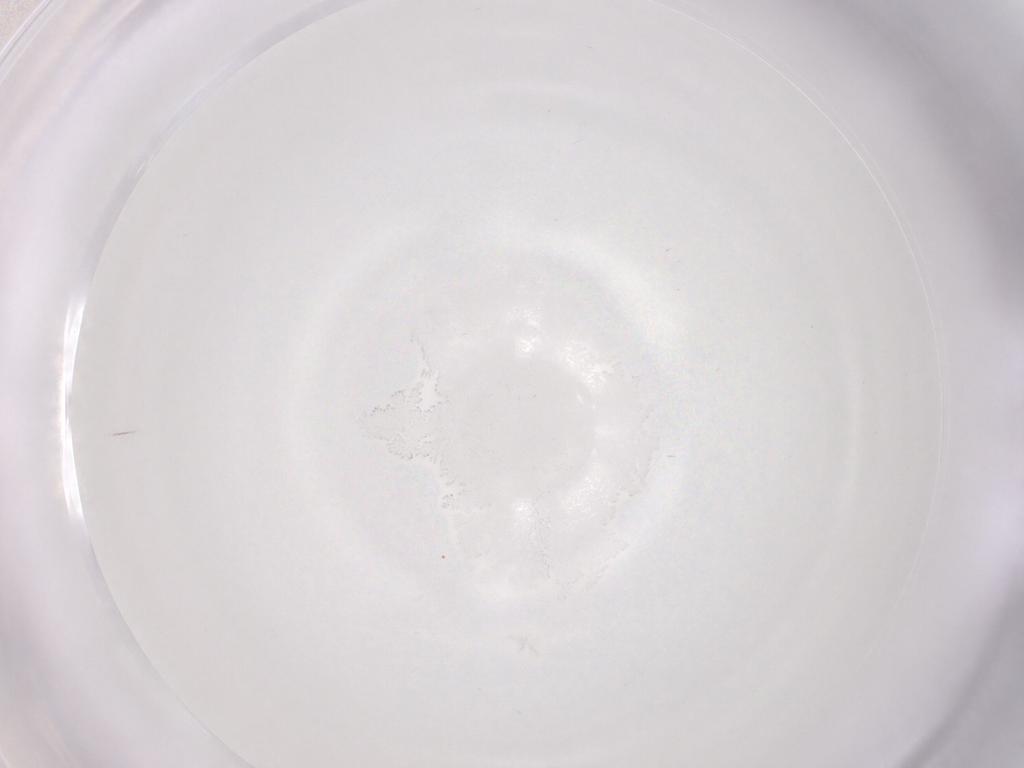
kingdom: Animalia
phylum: Arthropoda
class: Insecta
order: Hymenoptera
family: Scelionidae
